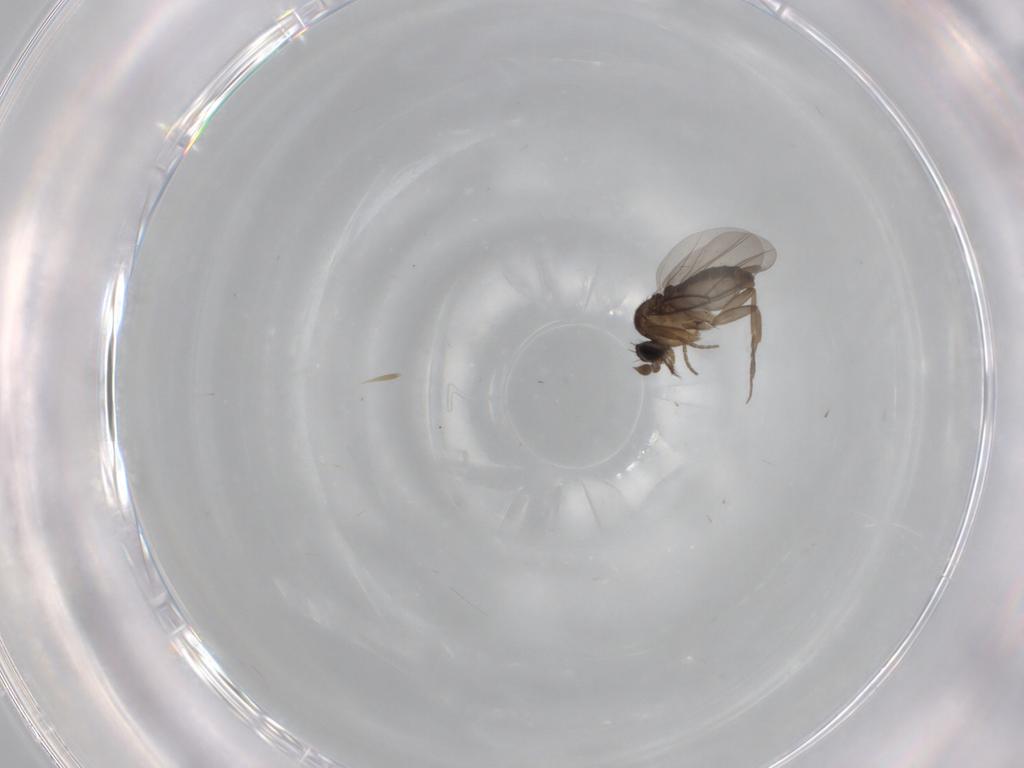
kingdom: Animalia
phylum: Arthropoda
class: Insecta
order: Diptera
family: Phoridae
